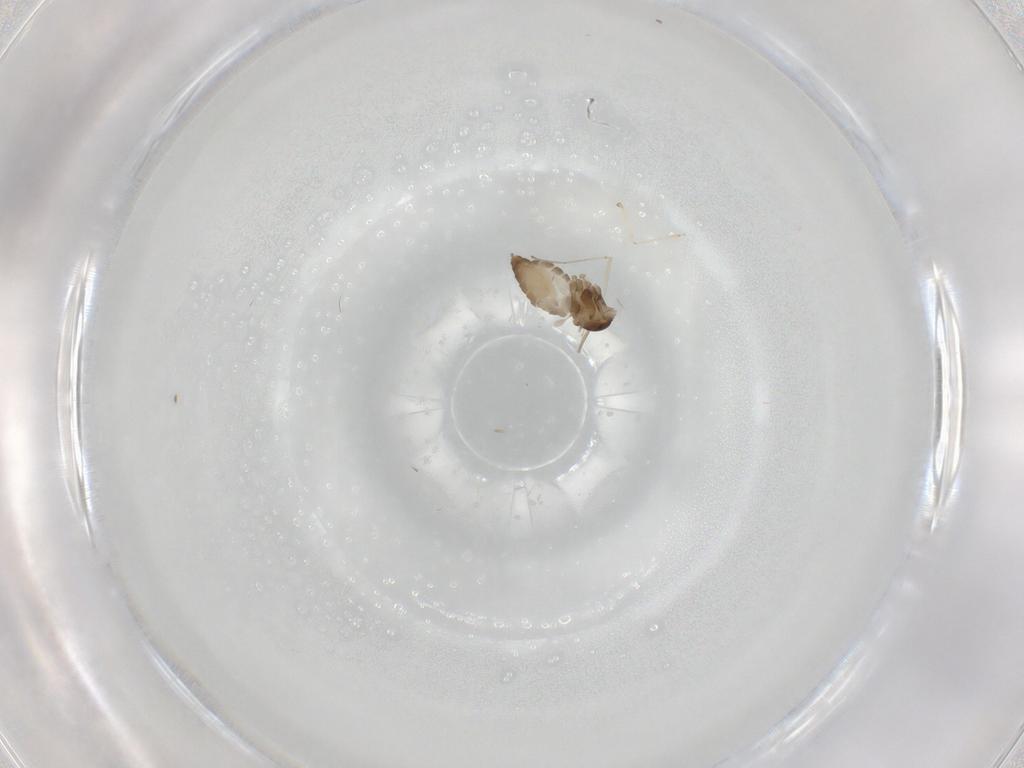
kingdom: Animalia
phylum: Arthropoda
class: Insecta
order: Diptera
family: Cecidomyiidae
